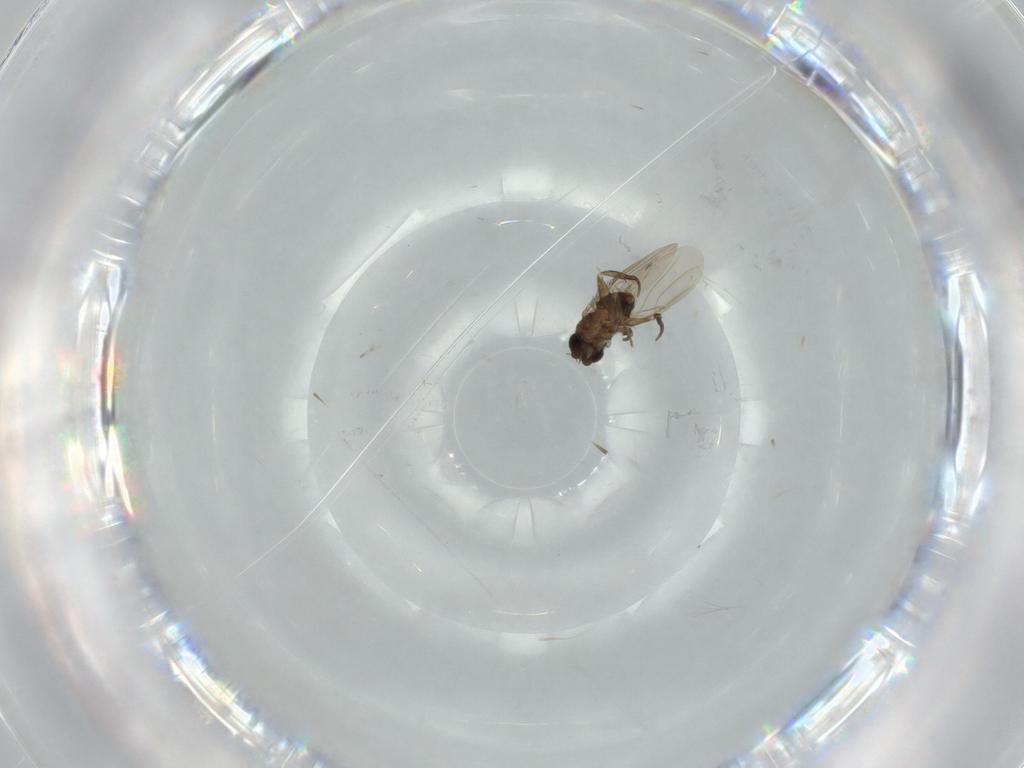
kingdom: Animalia
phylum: Arthropoda
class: Insecta
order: Diptera
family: Phoridae
